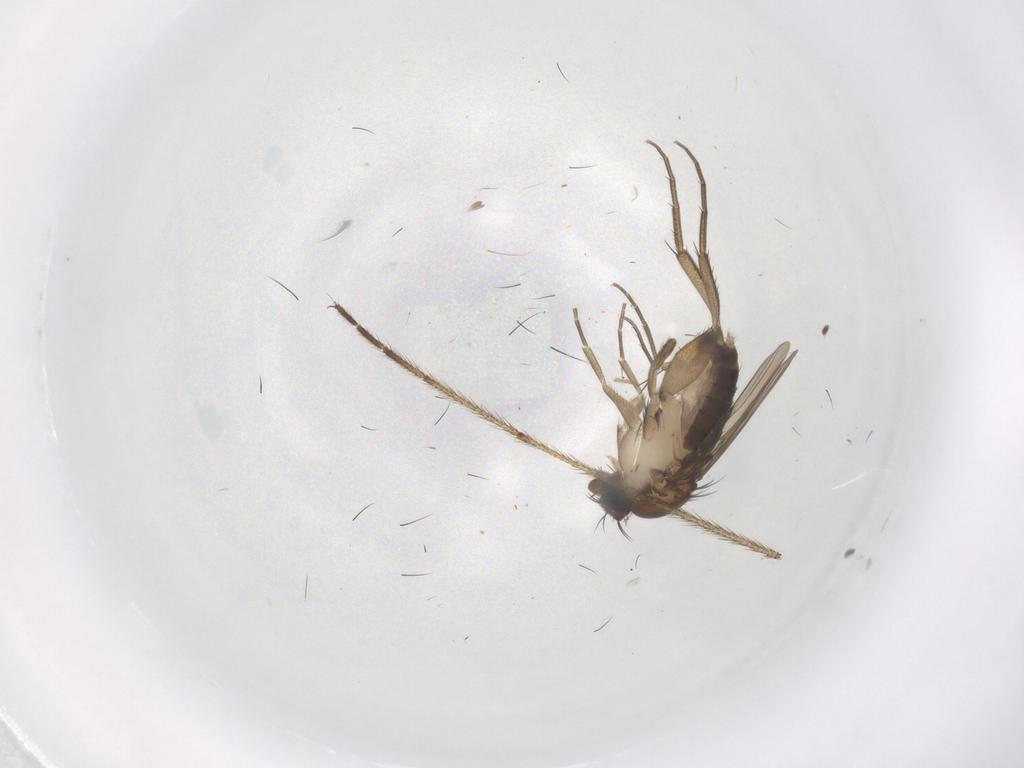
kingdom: Animalia
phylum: Arthropoda
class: Insecta
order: Diptera
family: Phoridae
